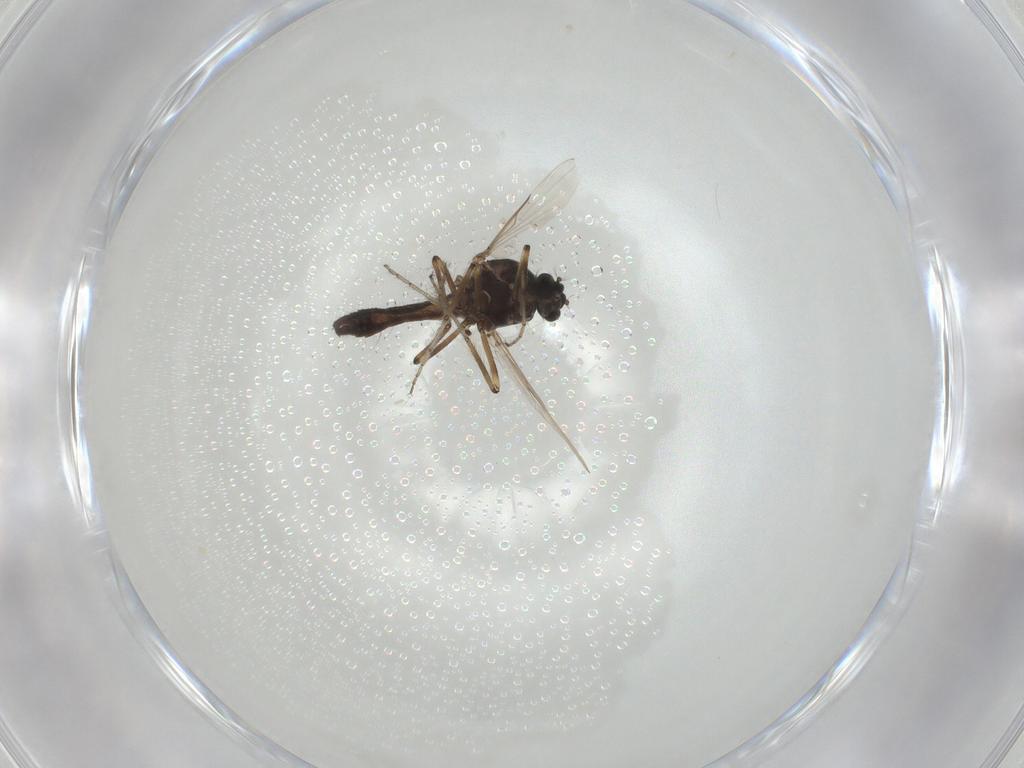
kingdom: Animalia
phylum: Arthropoda
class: Insecta
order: Diptera
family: Ceratopogonidae
